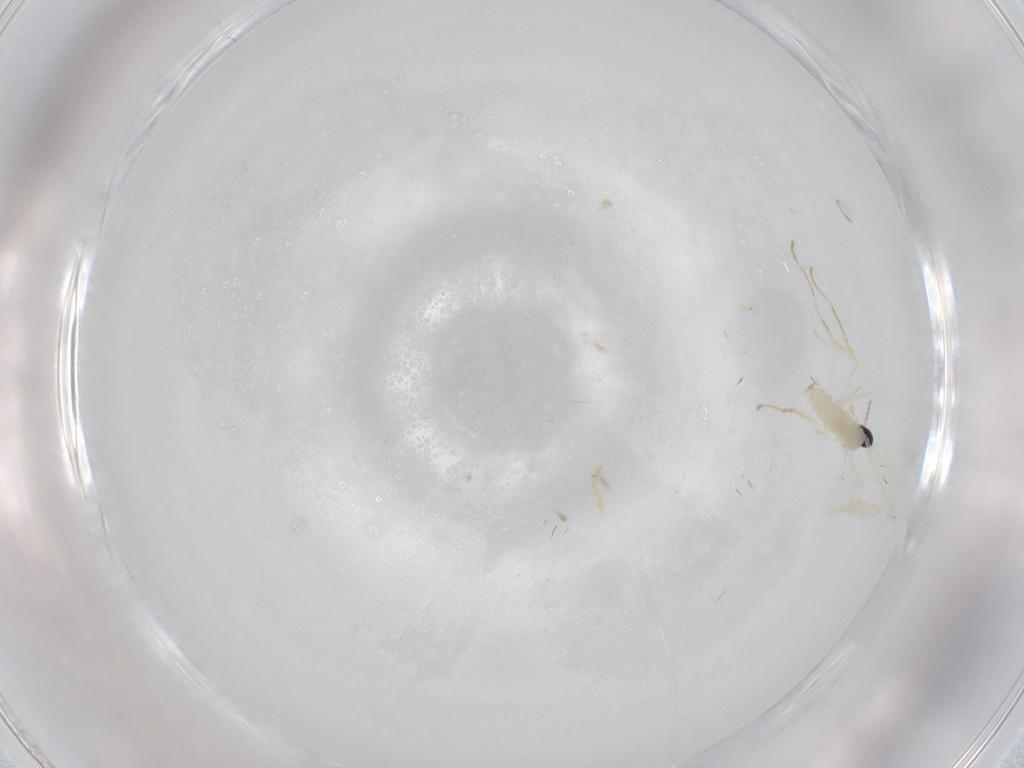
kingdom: Animalia
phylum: Arthropoda
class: Insecta
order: Diptera
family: Cecidomyiidae
